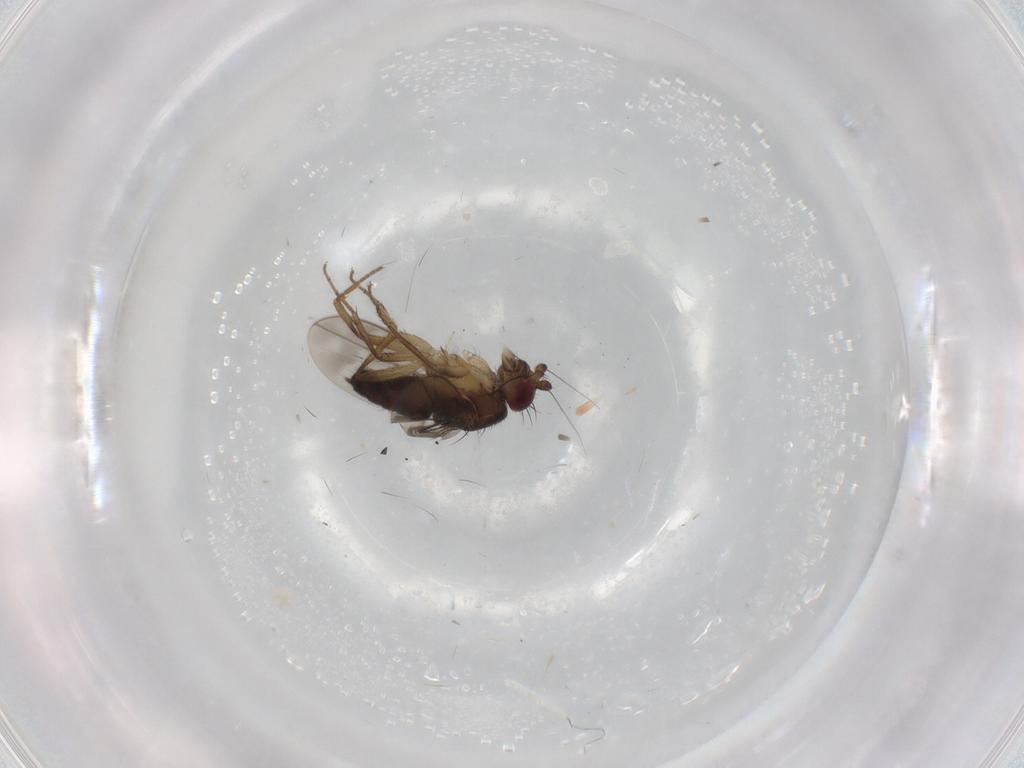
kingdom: Animalia
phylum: Arthropoda
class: Insecta
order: Diptera
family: Sphaeroceridae
